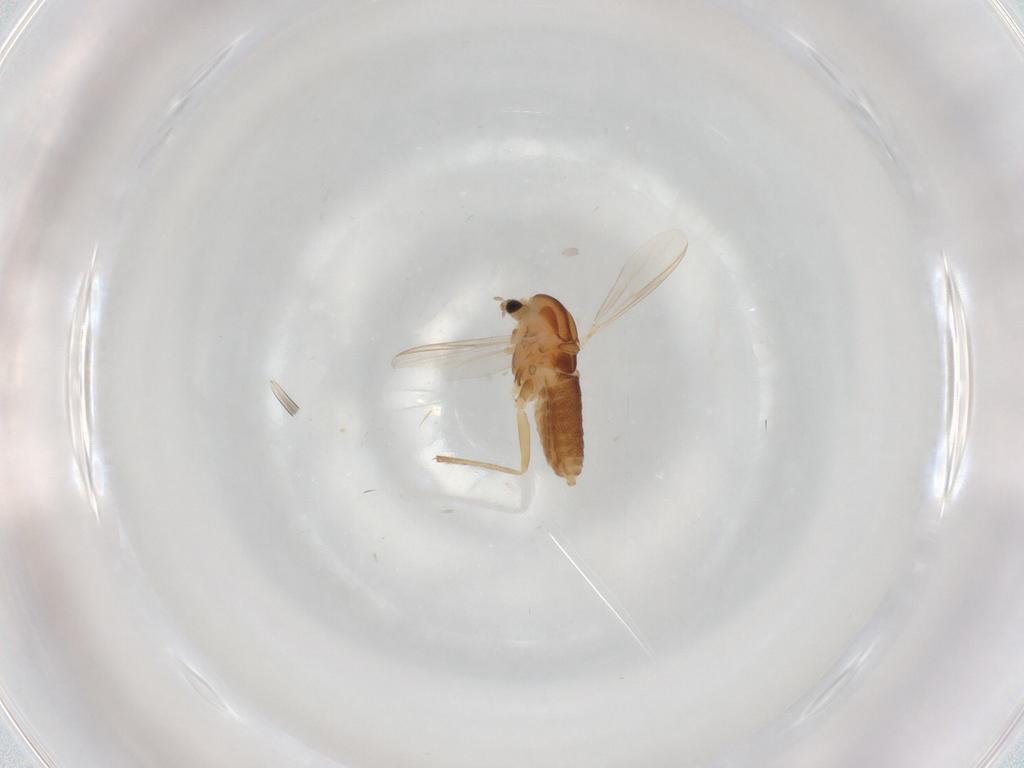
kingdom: Animalia
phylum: Arthropoda
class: Insecta
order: Diptera
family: Chironomidae
